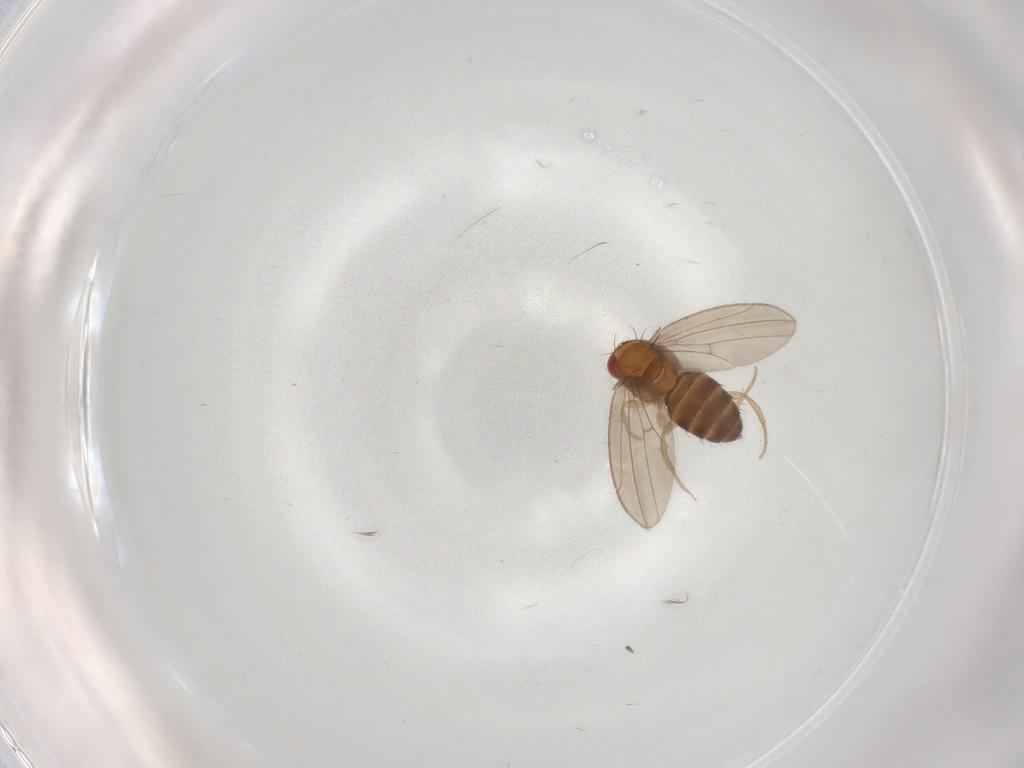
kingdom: Animalia
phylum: Arthropoda
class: Insecta
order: Diptera
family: Drosophilidae
